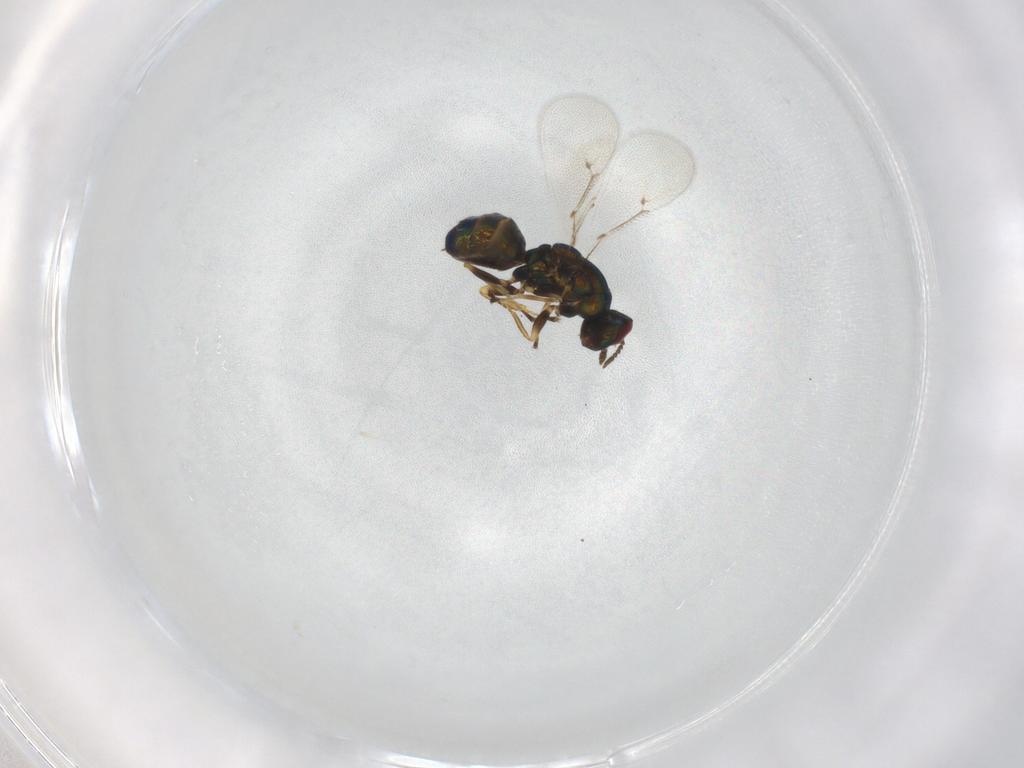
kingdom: Animalia
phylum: Arthropoda
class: Insecta
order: Hymenoptera
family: Eulophidae
